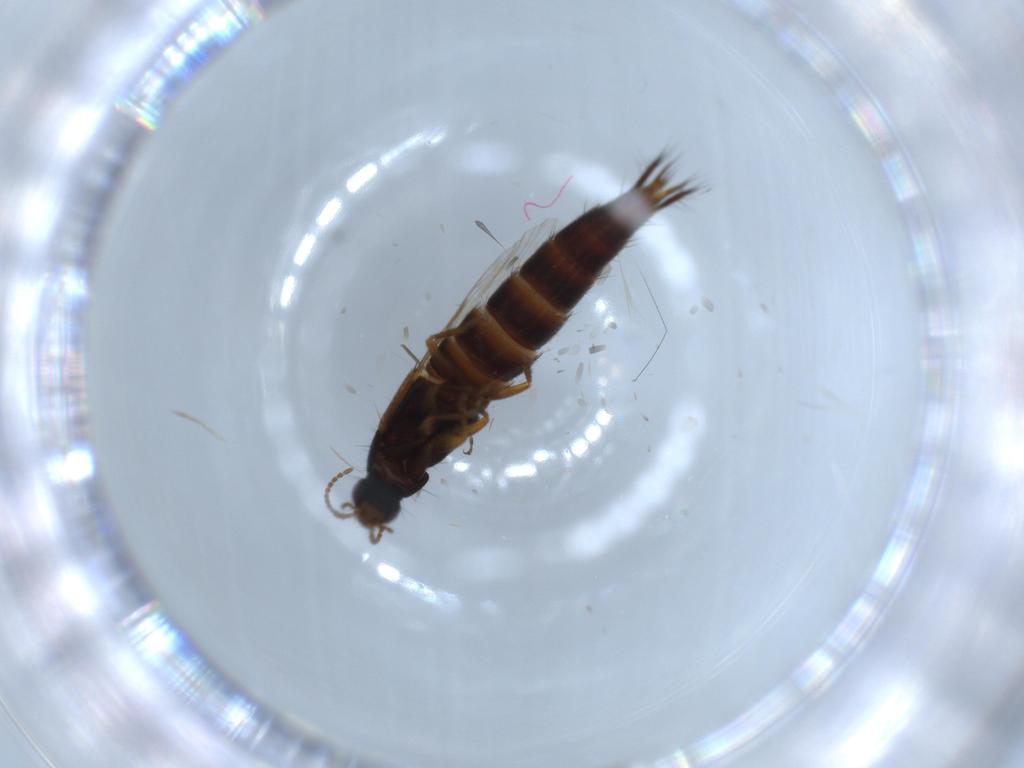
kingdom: Animalia
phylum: Arthropoda
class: Insecta
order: Coleoptera
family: Staphylinidae
